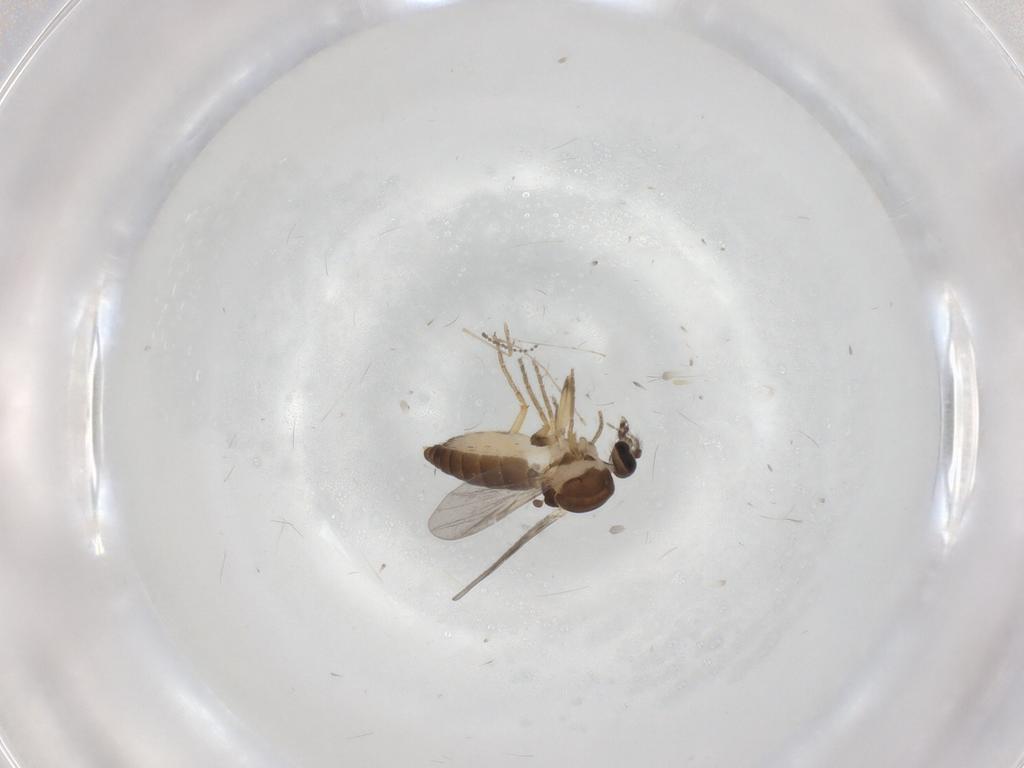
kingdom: Animalia
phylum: Arthropoda
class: Insecta
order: Diptera
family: Ceratopogonidae
